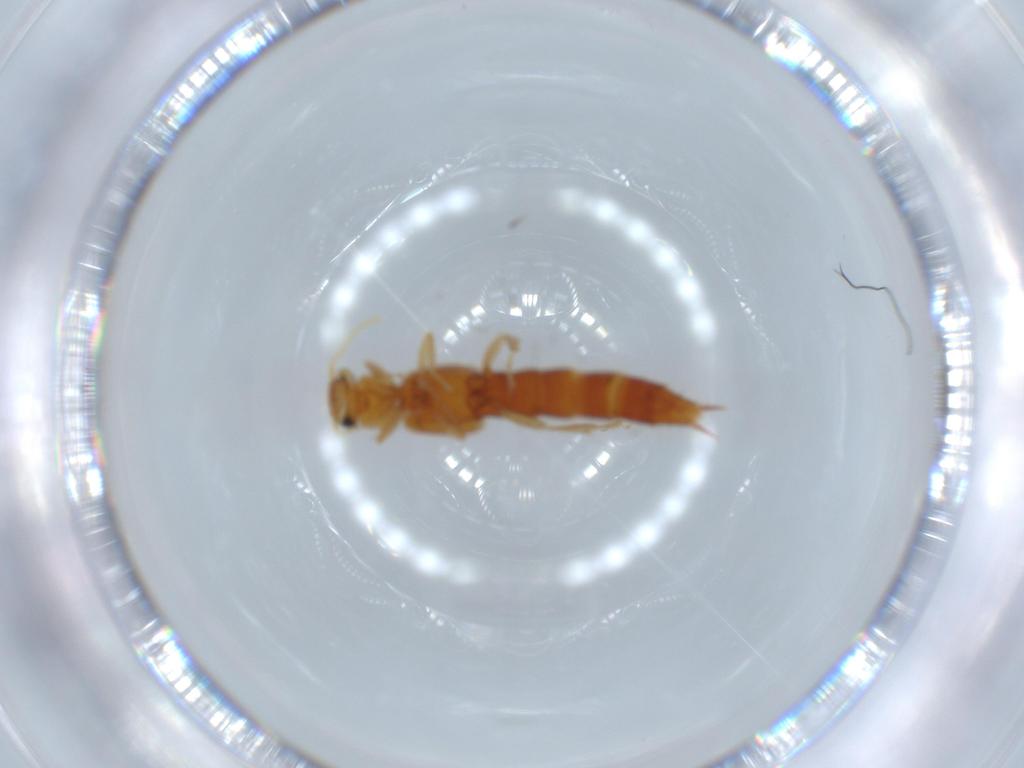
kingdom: Animalia
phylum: Arthropoda
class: Insecta
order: Coleoptera
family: Staphylinidae
